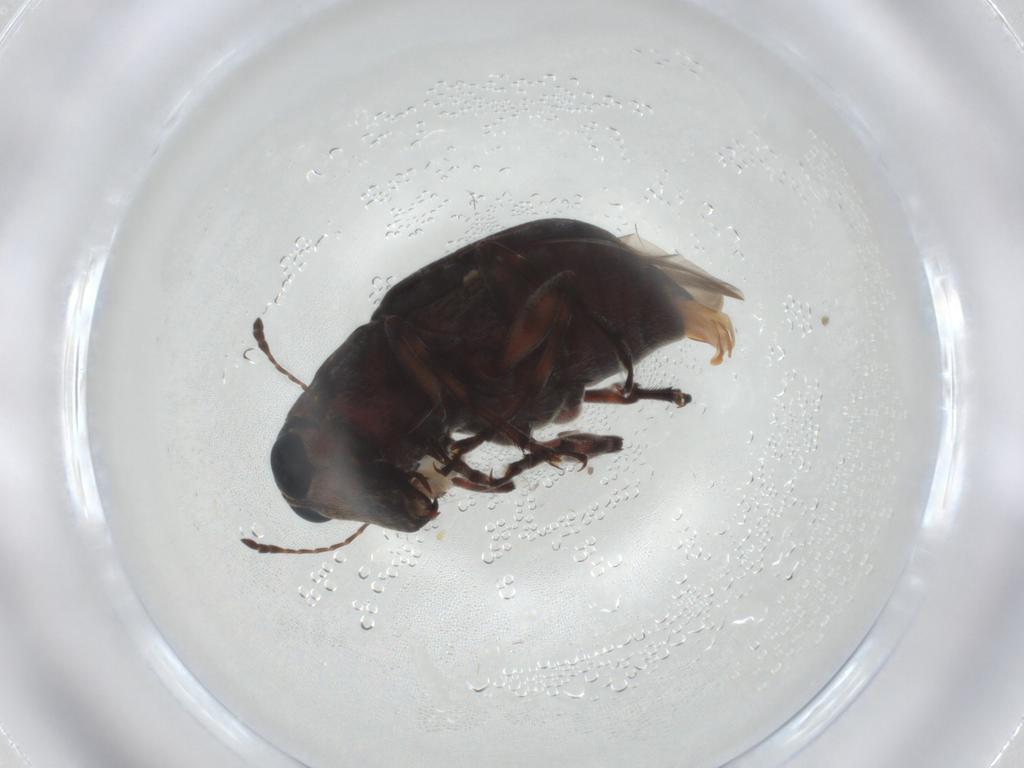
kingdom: Animalia
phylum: Arthropoda
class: Insecta
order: Coleoptera
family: Anthribidae
